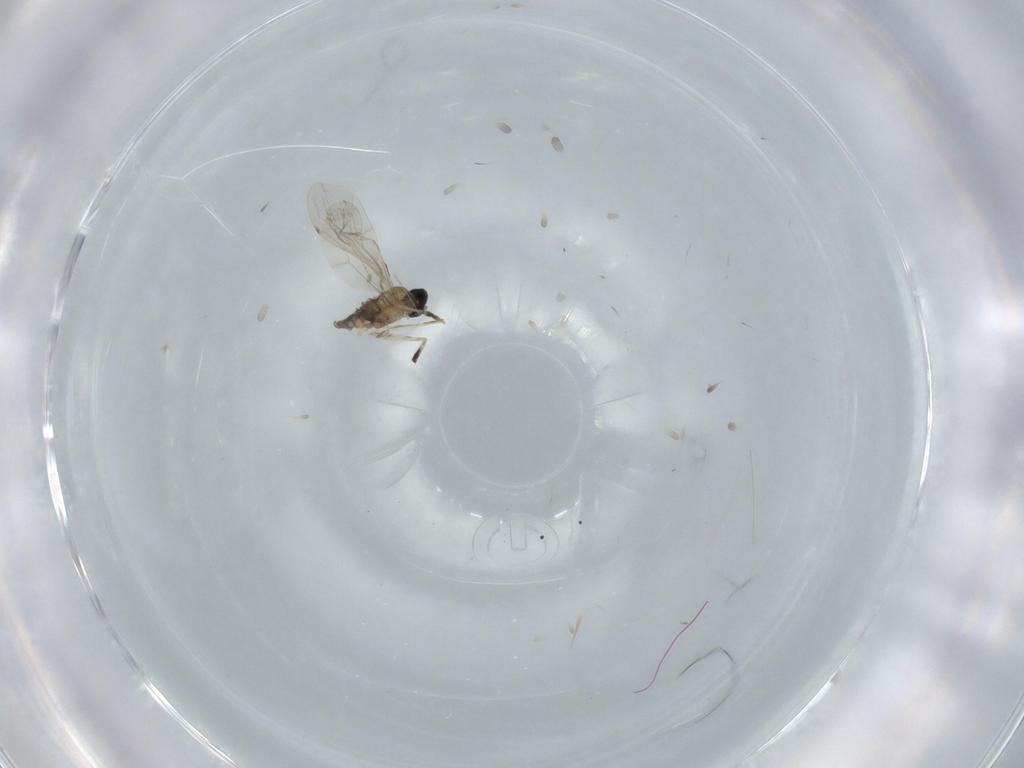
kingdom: Animalia
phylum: Arthropoda
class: Insecta
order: Diptera
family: Cecidomyiidae
